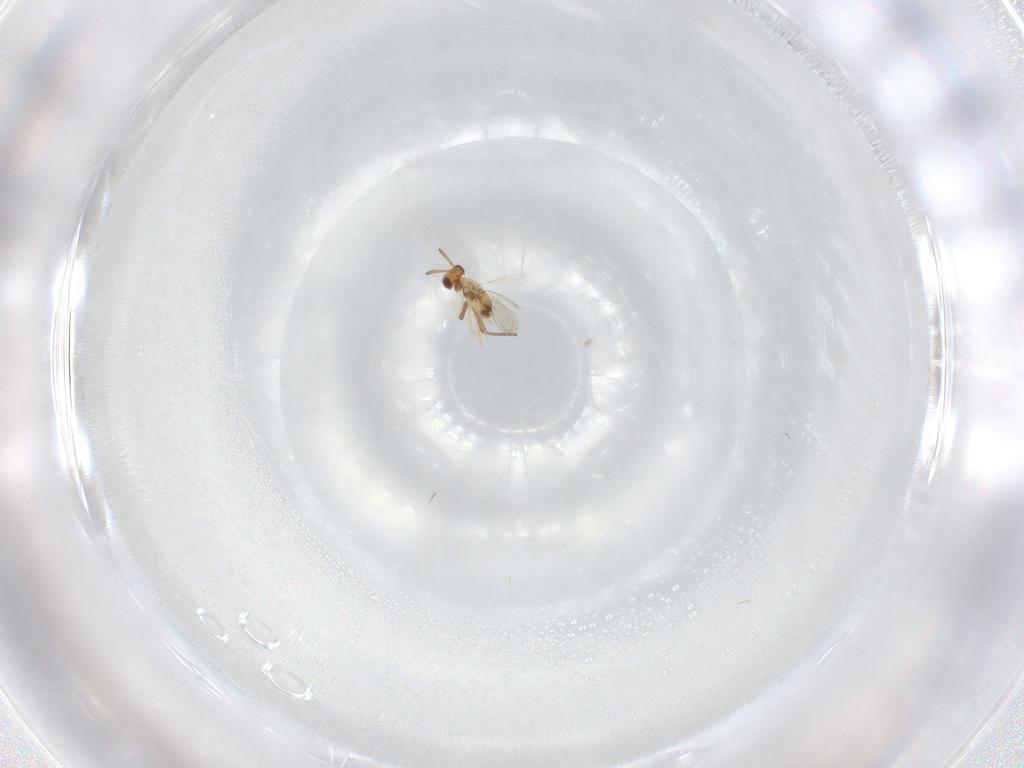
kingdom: Animalia
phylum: Arthropoda
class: Insecta
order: Hymenoptera
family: Aphelinidae
